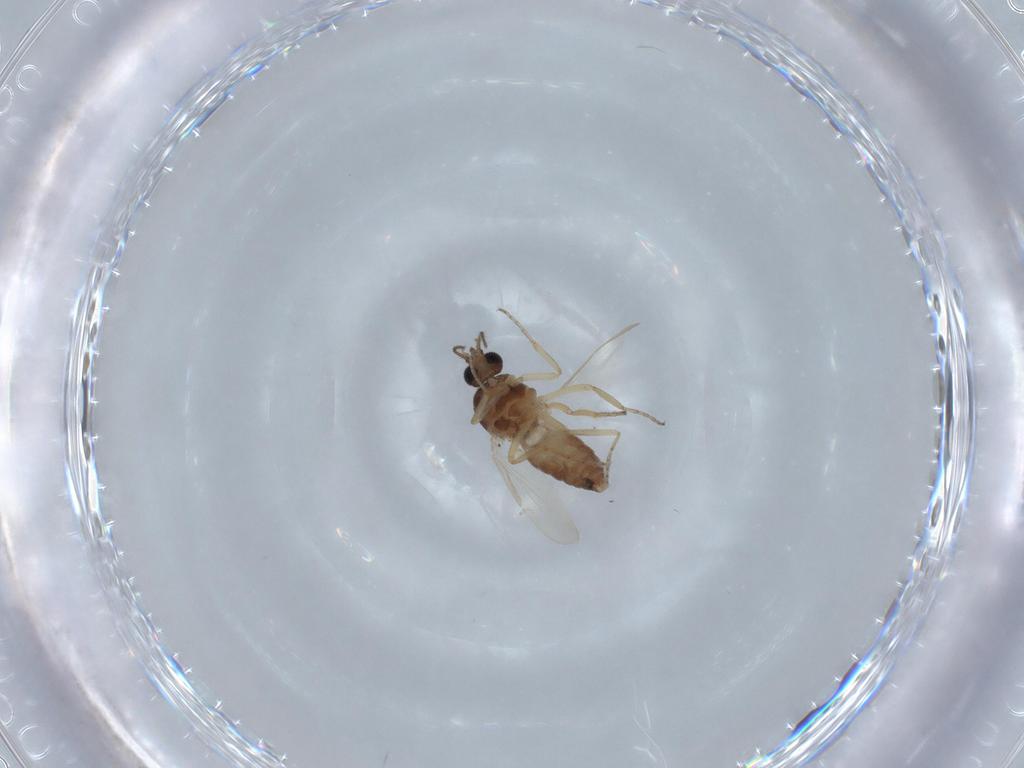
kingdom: Animalia
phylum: Arthropoda
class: Insecta
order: Diptera
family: Ceratopogonidae
